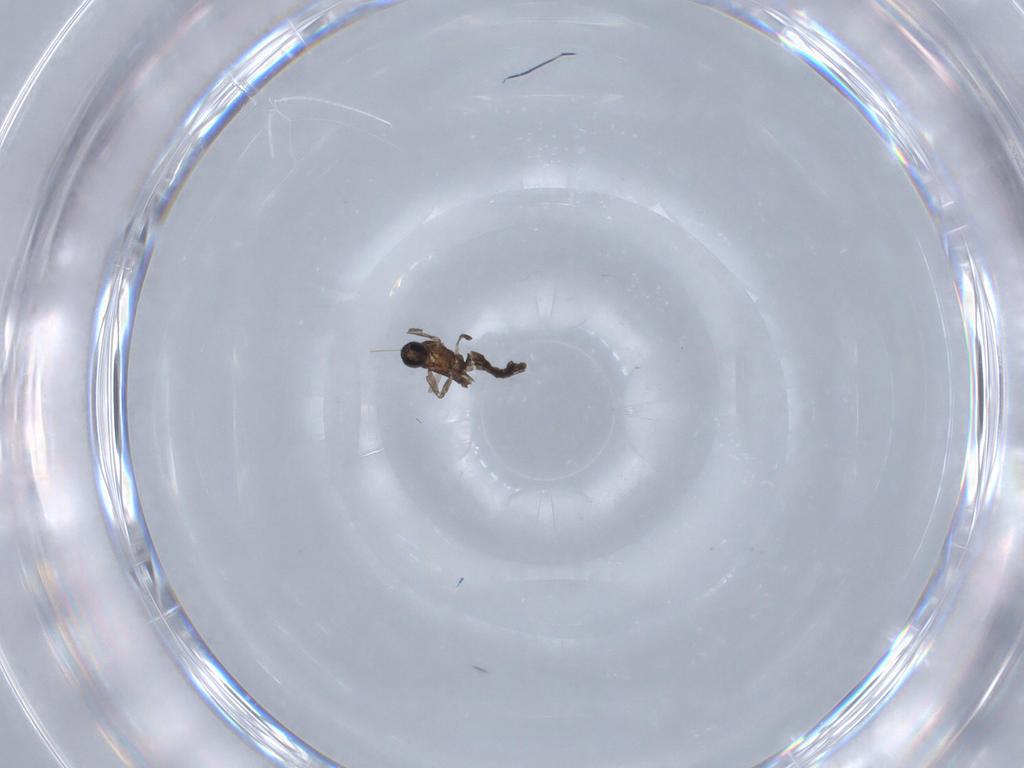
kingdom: Animalia
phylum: Arthropoda
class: Insecta
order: Diptera
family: Sciaridae
